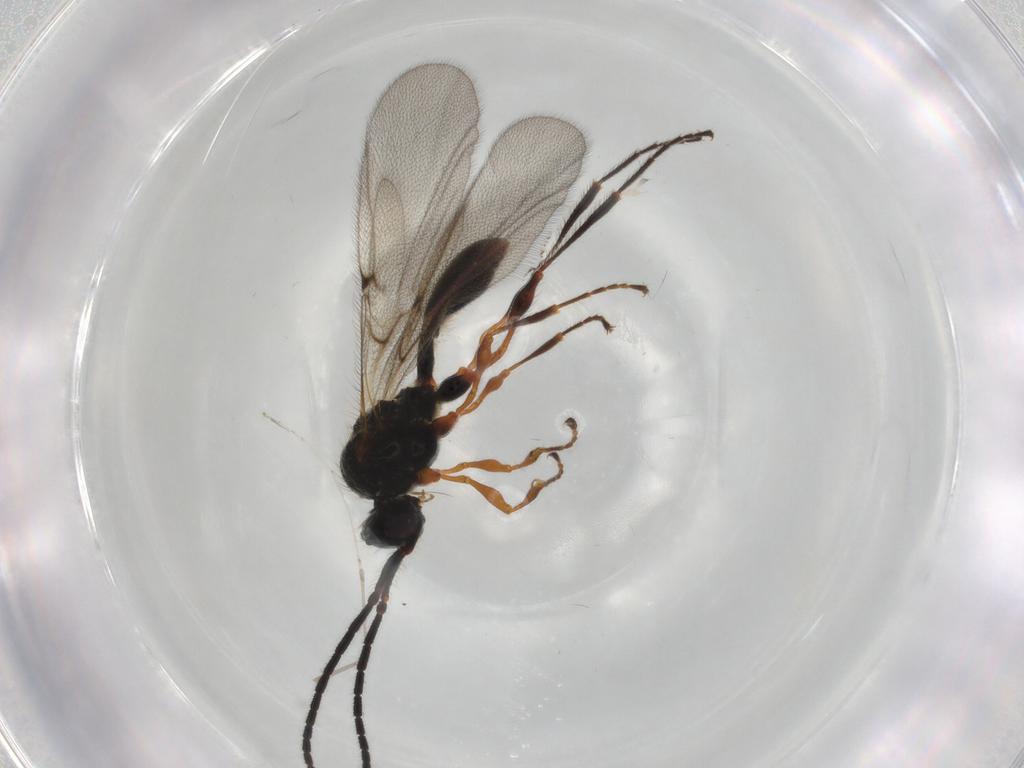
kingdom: Animalia
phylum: Arthropoda
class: Insecta
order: Hymenoptera
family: Diapriidae
